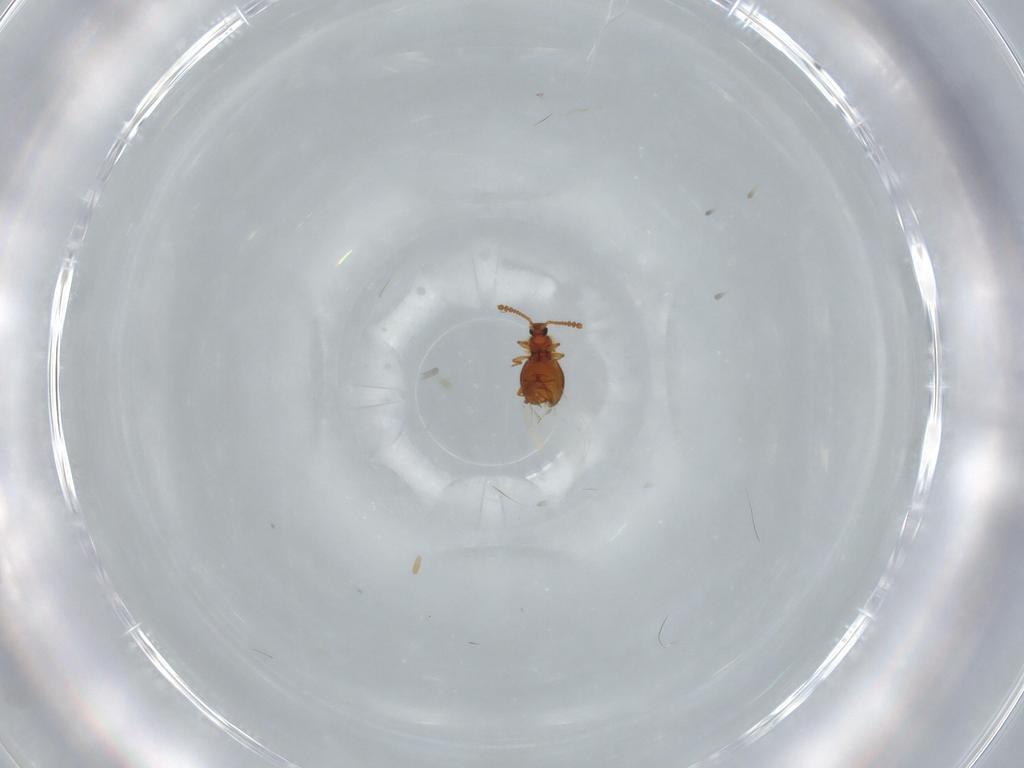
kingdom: Animalia
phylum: Arthropoda
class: Insecta
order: Coleoptera
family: Staphylinidae
